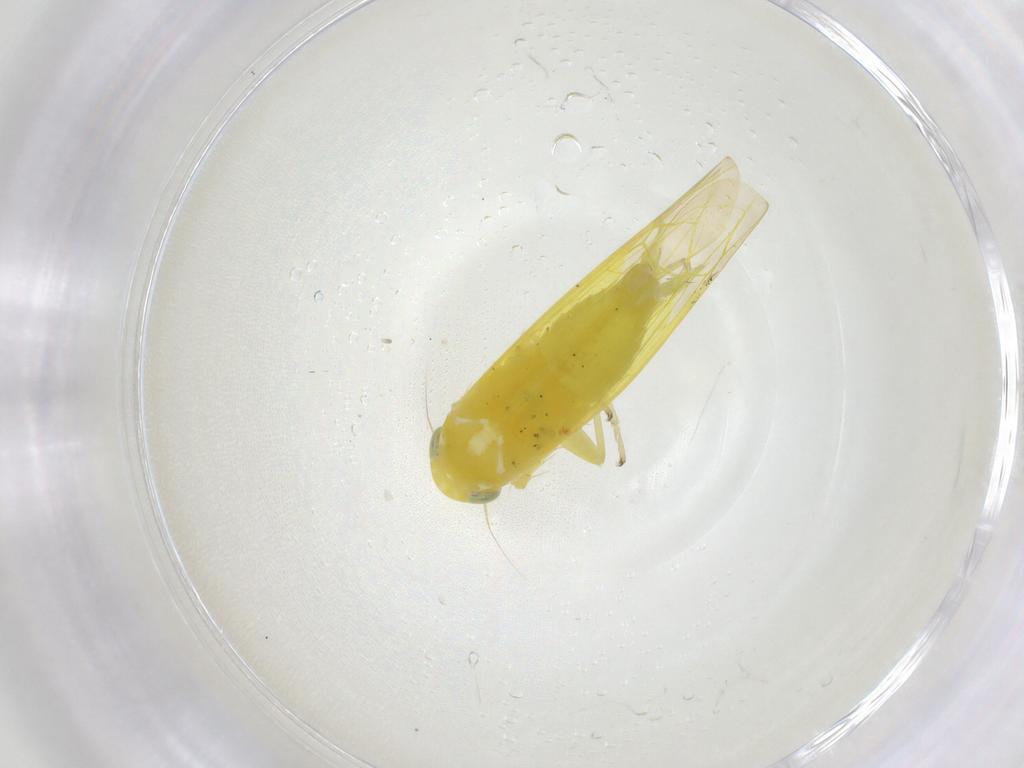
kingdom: Animalia
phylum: Arthropoda
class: Insecta
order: Hemiptera
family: Cicadellidae
